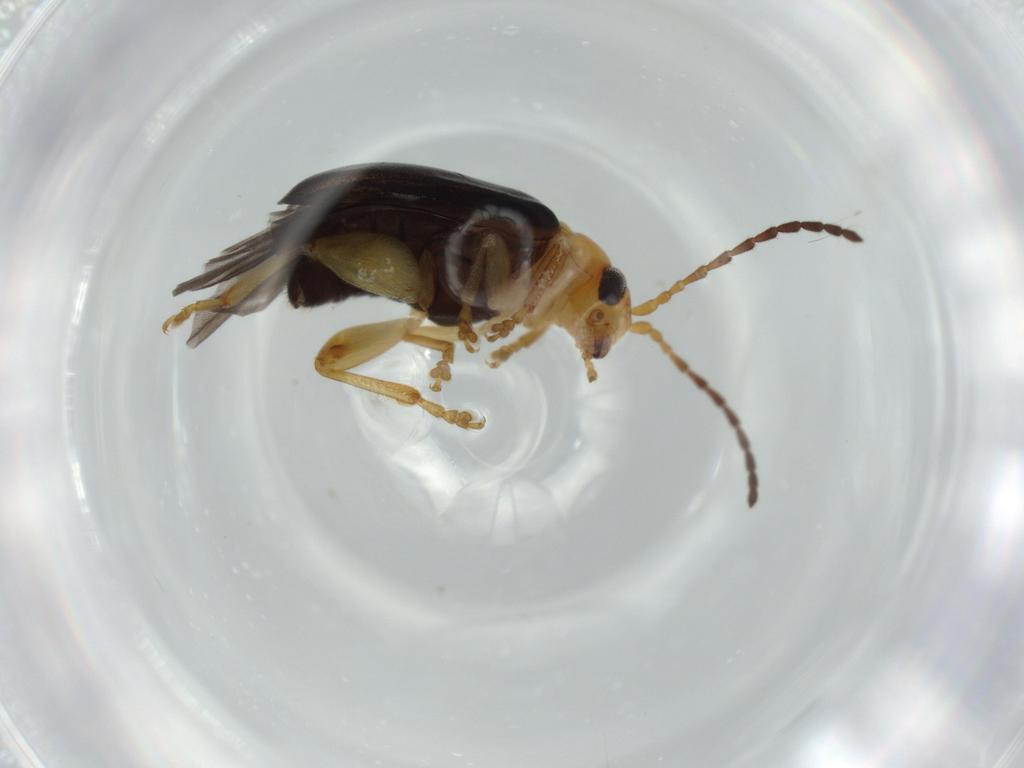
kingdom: Animalia
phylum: Arthropoda
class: Insecta
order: Coleoptera
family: Chrysomelidae
